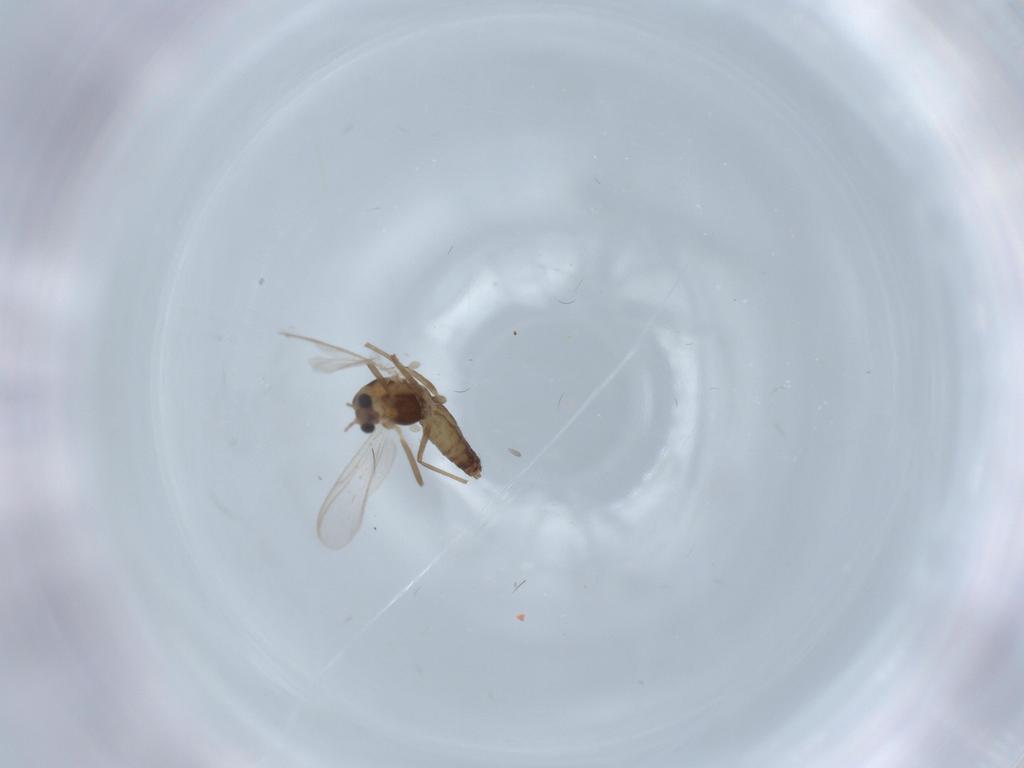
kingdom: Animalia
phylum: Arthropoda
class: Insecta
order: Diptera
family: Chironomidae
